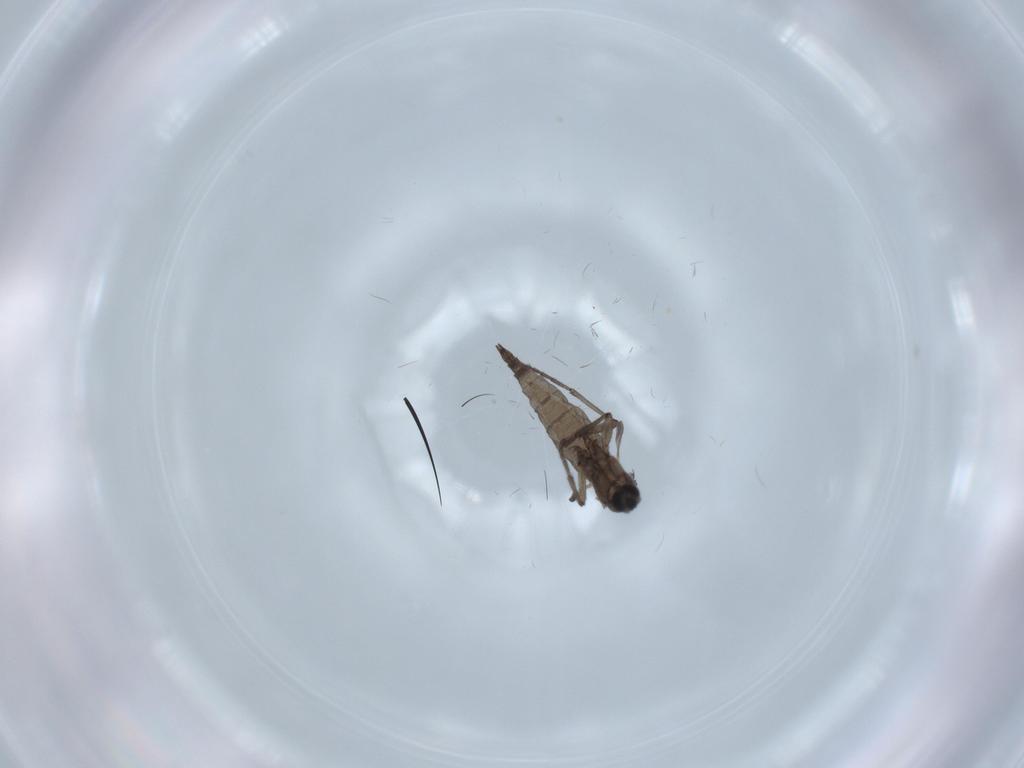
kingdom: Animalia
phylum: Arthropoda
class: Insecta
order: Diptera
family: Sciaridae
